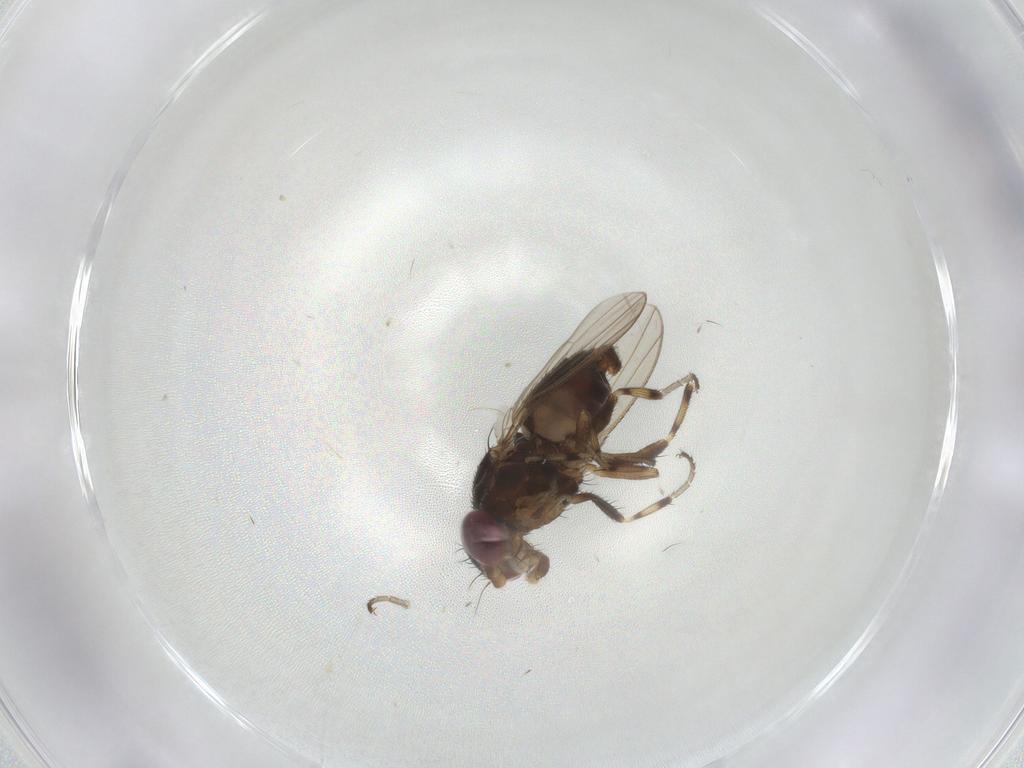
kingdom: Animalia
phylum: Arthropoda
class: Insecta
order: Diptera
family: Heleomyzidae
